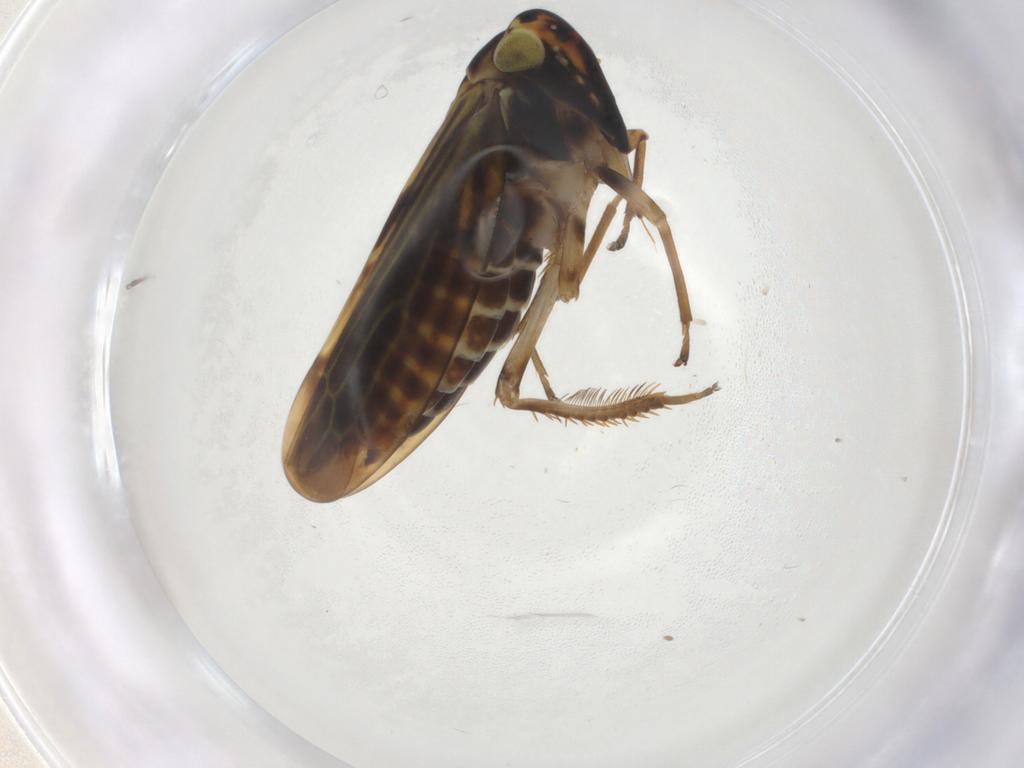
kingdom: Animalia
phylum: Arthropoda
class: Insecta
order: Hemiptera
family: Cicadellidae
